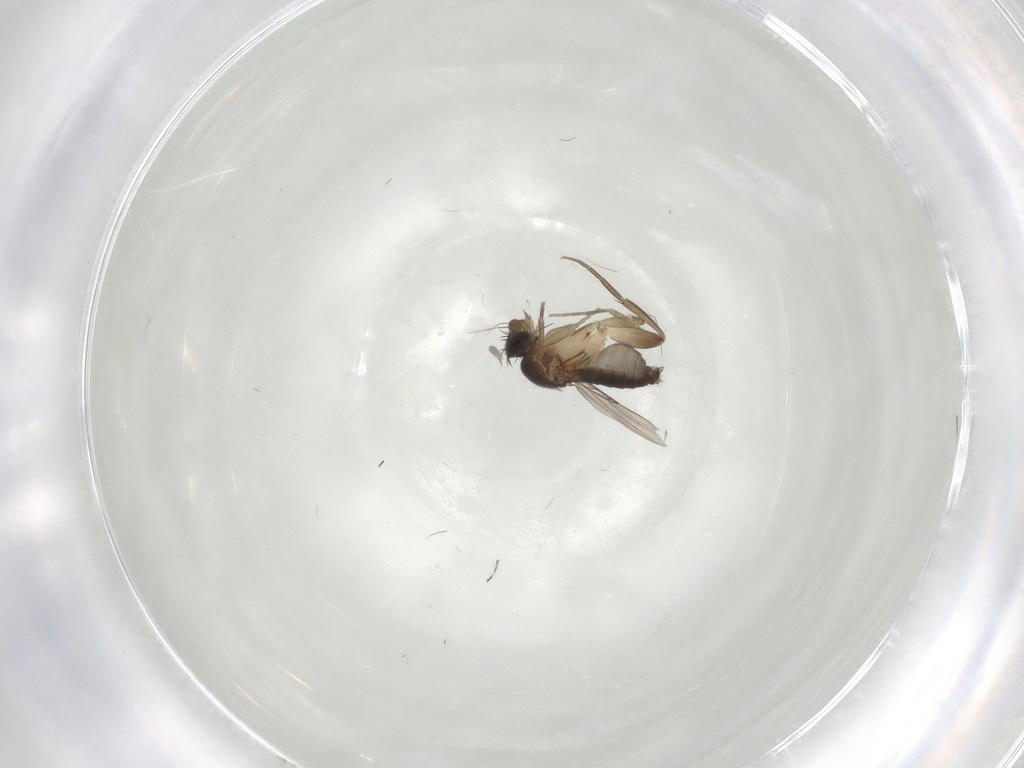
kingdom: Animalia
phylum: Arthropoda
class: Insecta
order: Diptera
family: Phoridae
